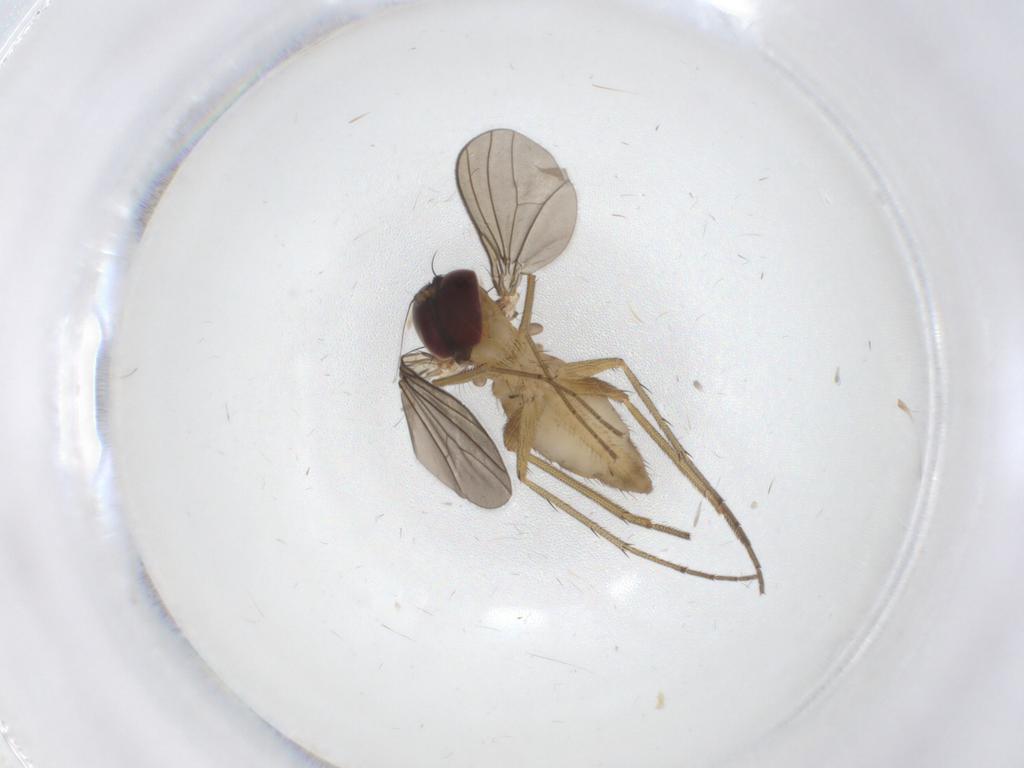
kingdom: Animalia
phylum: Arthropoda
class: Insecta
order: Diptera
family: Dolichopodidae
